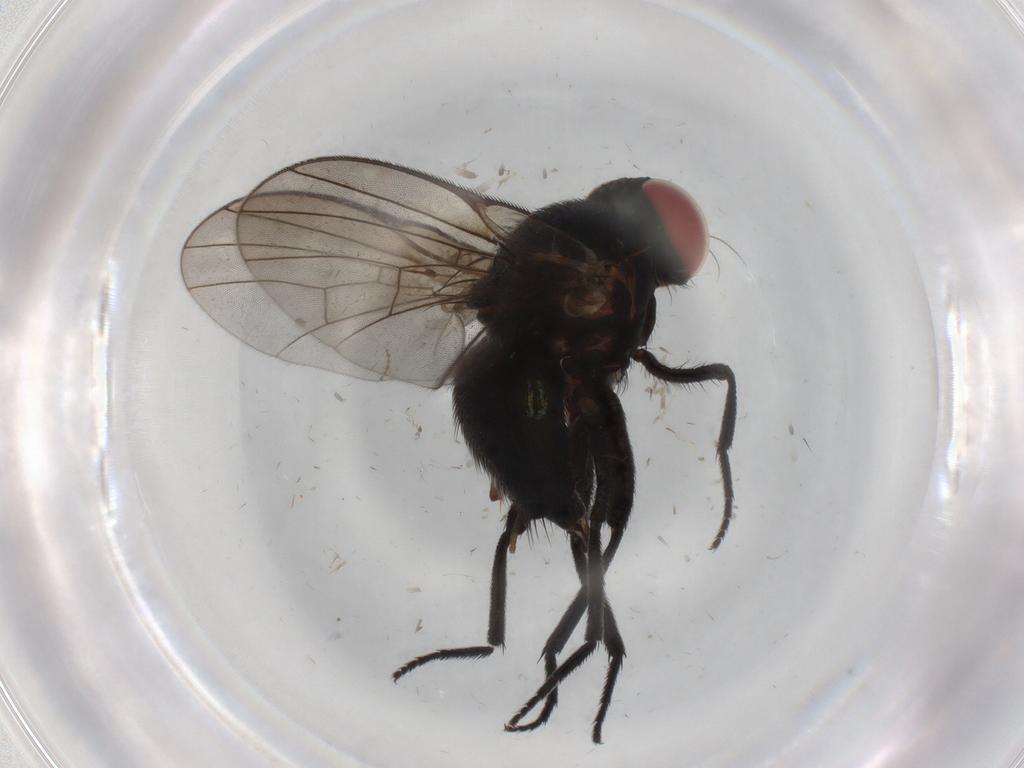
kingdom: Animalia
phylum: Arthropoda
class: Insecta
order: Diptera
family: Agromyzidae
